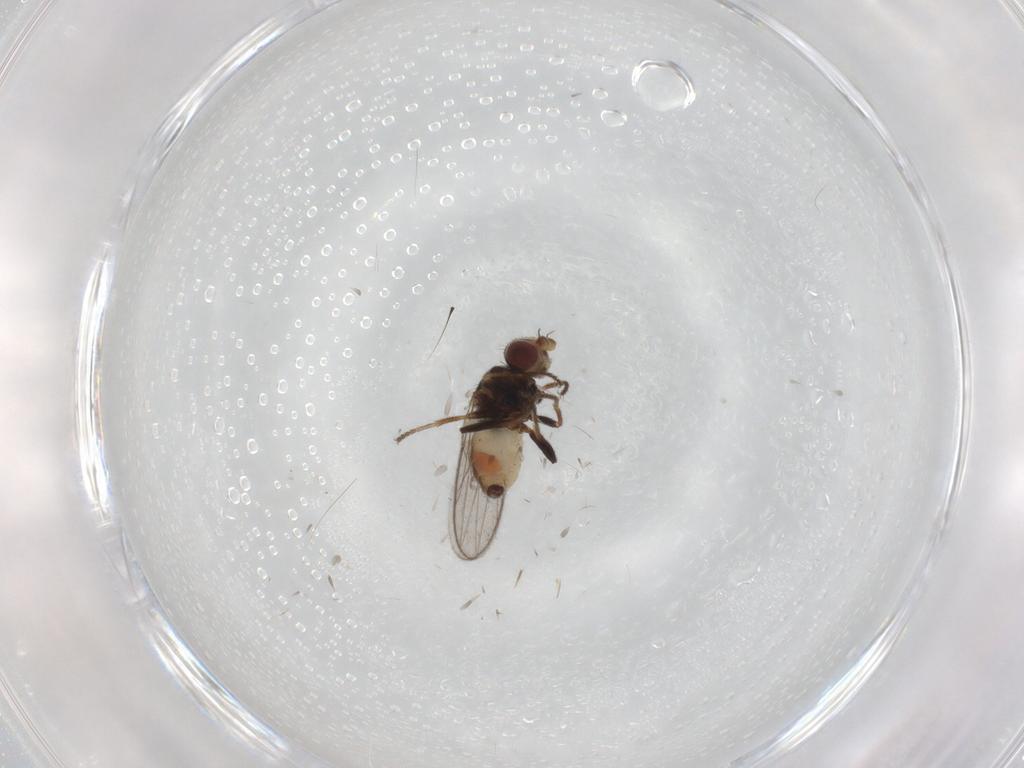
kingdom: Animalia
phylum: Arthropoda
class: Insecta
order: Diptera
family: Chloropidae
